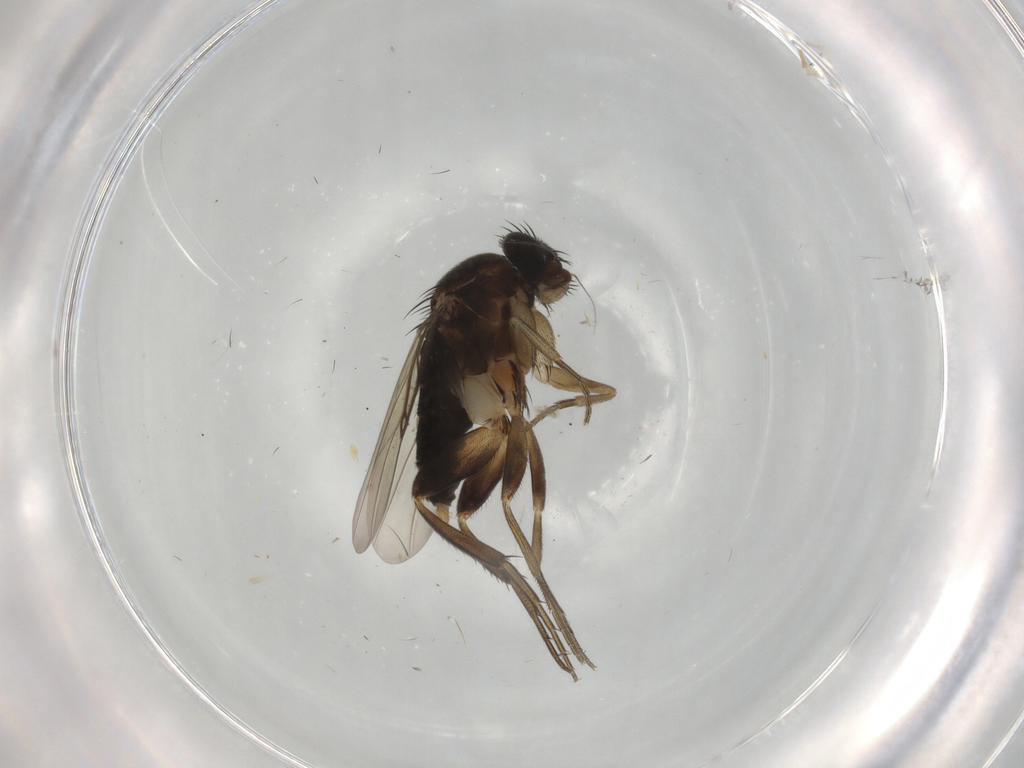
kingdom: Animalia
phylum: Arthropoda
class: Insecta
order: Diptera
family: Phoridae
